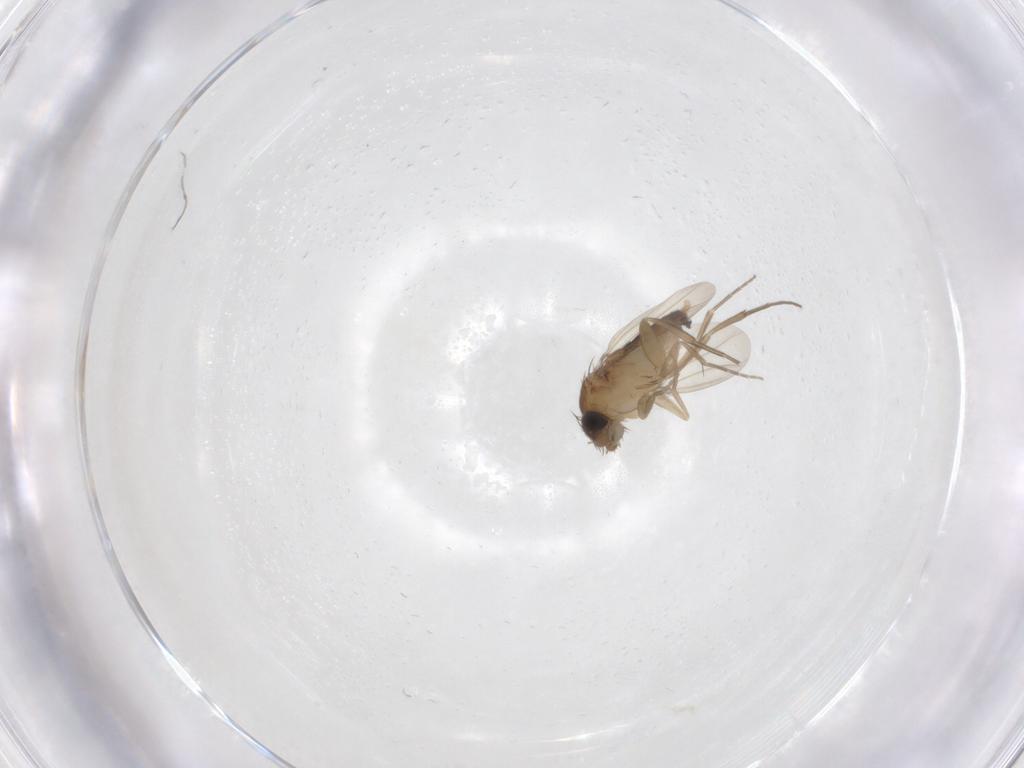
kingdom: Animalia
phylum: Arthropoda
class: Insecta
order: Diptera
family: Phoridae
